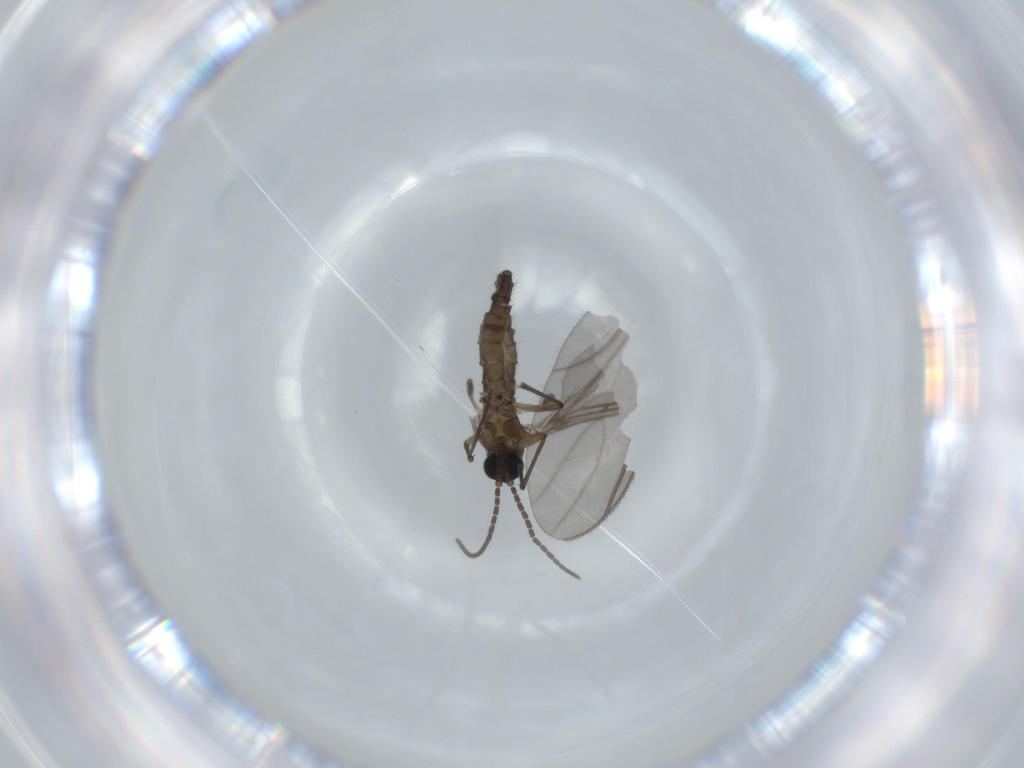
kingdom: Animalia
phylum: Arthropoda
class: Insecta
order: Diptera
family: Sciaridae
